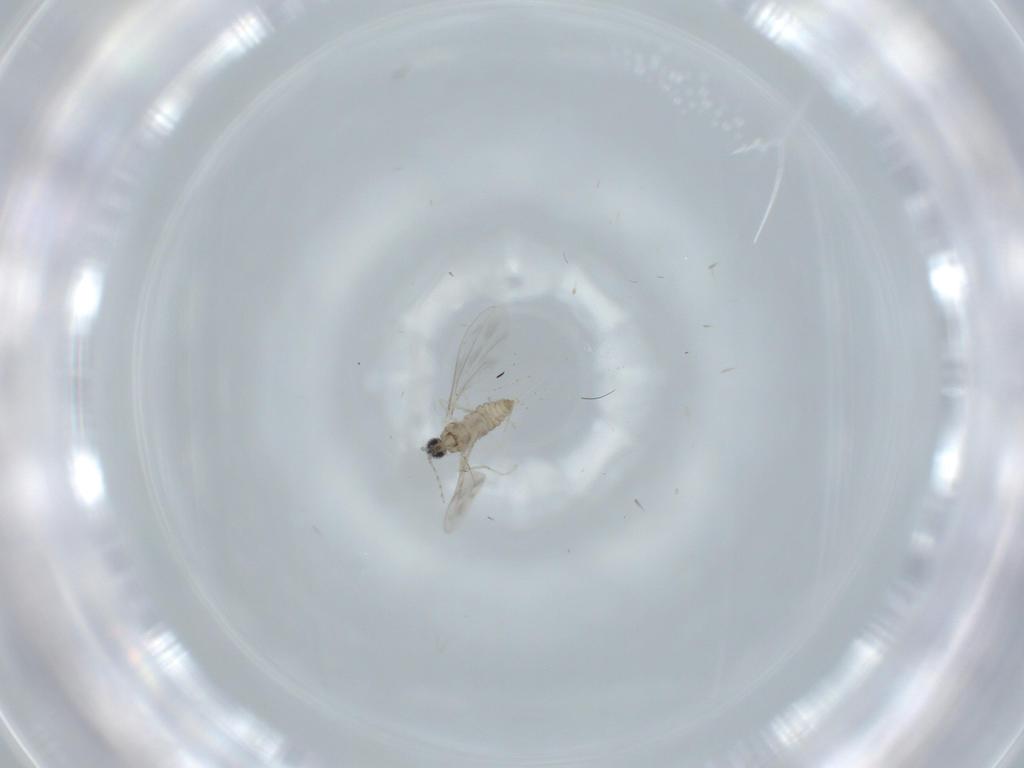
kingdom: Animalia
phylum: Arthropoda
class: Insecta
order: Diptera
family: Cecidomyiidae
